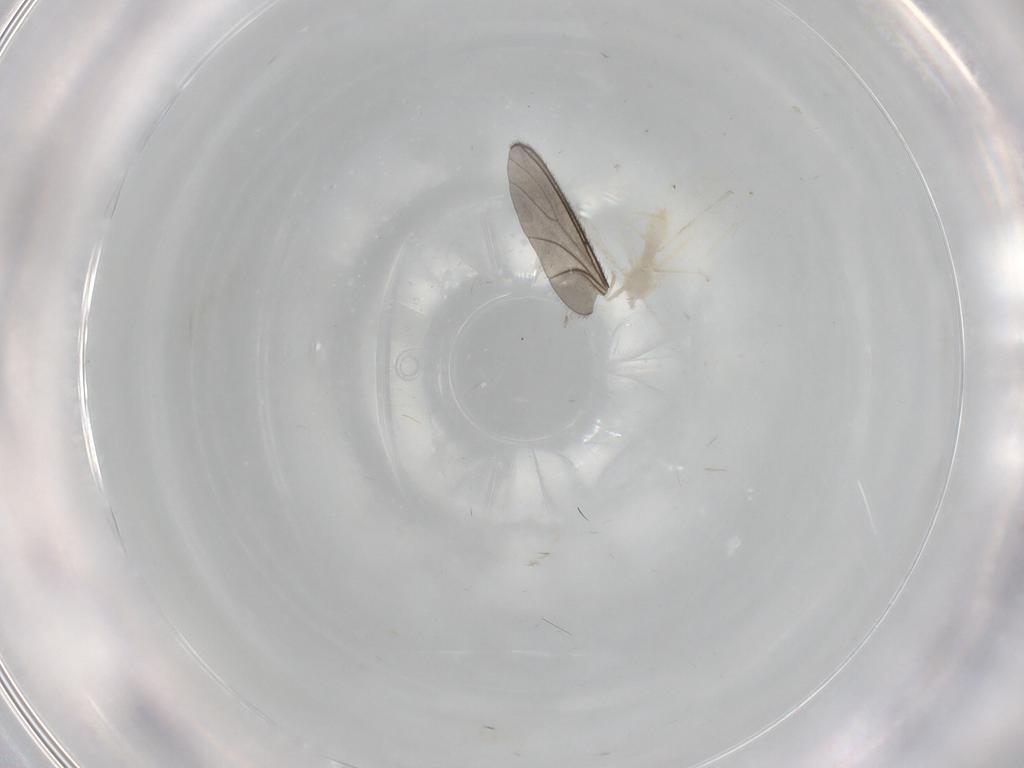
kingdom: Animalia
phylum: Arthropoda
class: Insecta
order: Diptera
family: Cecidomyiidae
